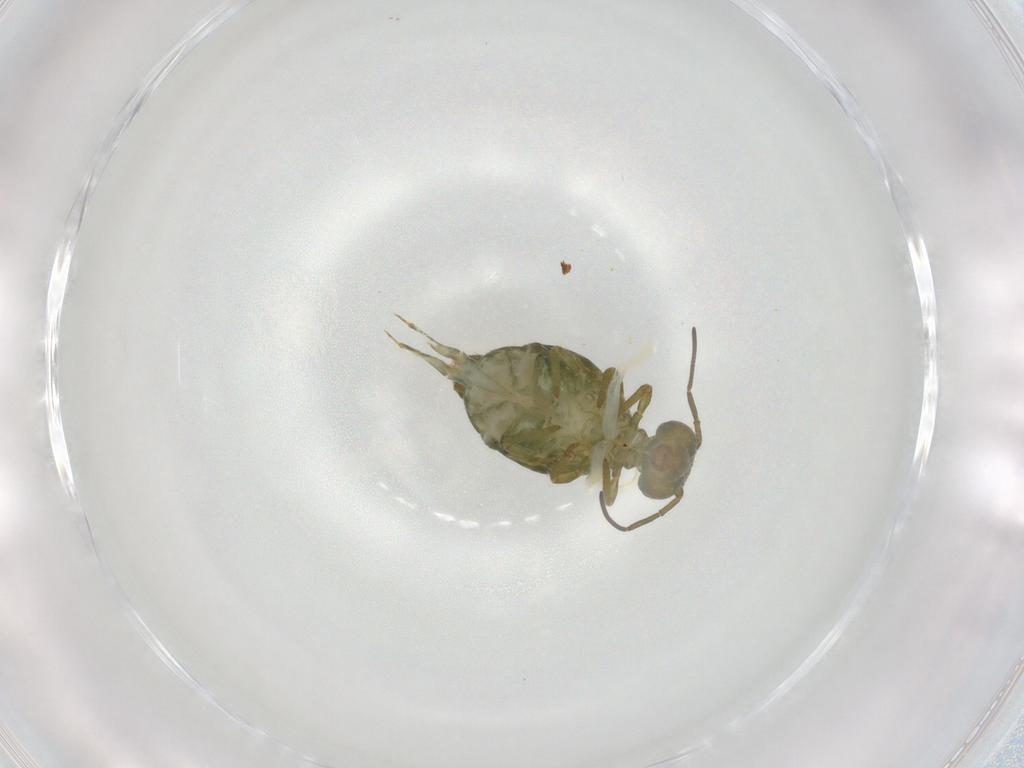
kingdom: Animalia
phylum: Arthropoda
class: Collembola
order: Symphypleona
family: Sminthuridae
